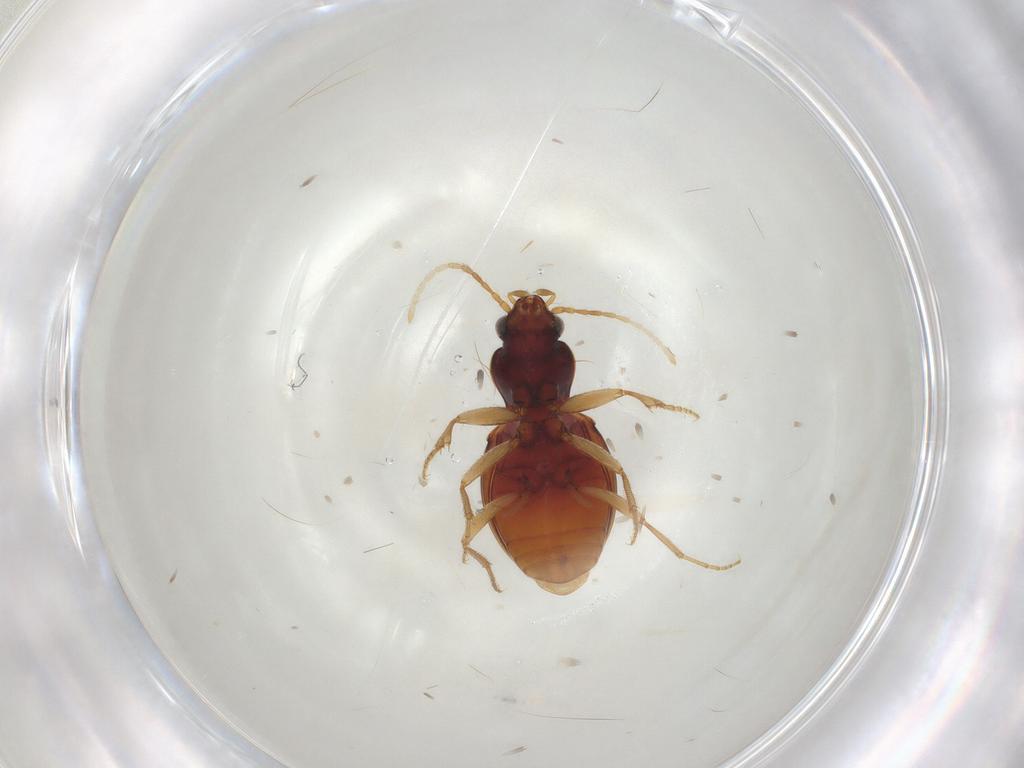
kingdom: Animalia
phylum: Arthropoda
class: Insecta
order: Coleoptera
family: Carabidae
